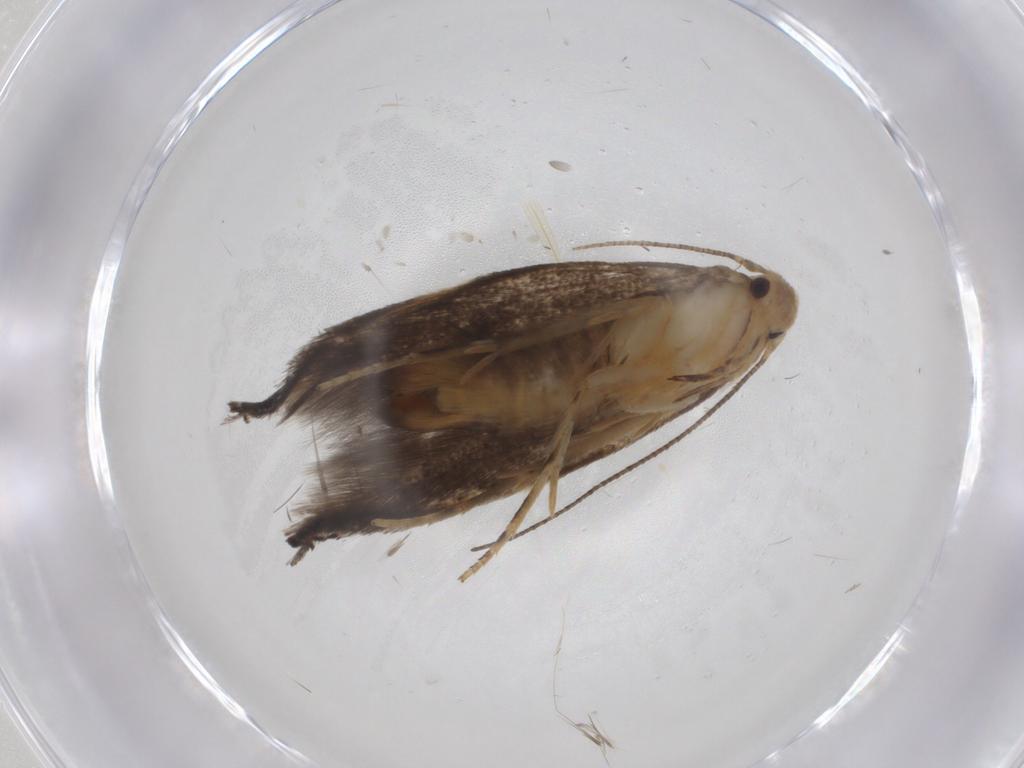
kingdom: Animalia
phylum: Arthropoda
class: Insecta
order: Lepidoptera
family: Elachistidae
